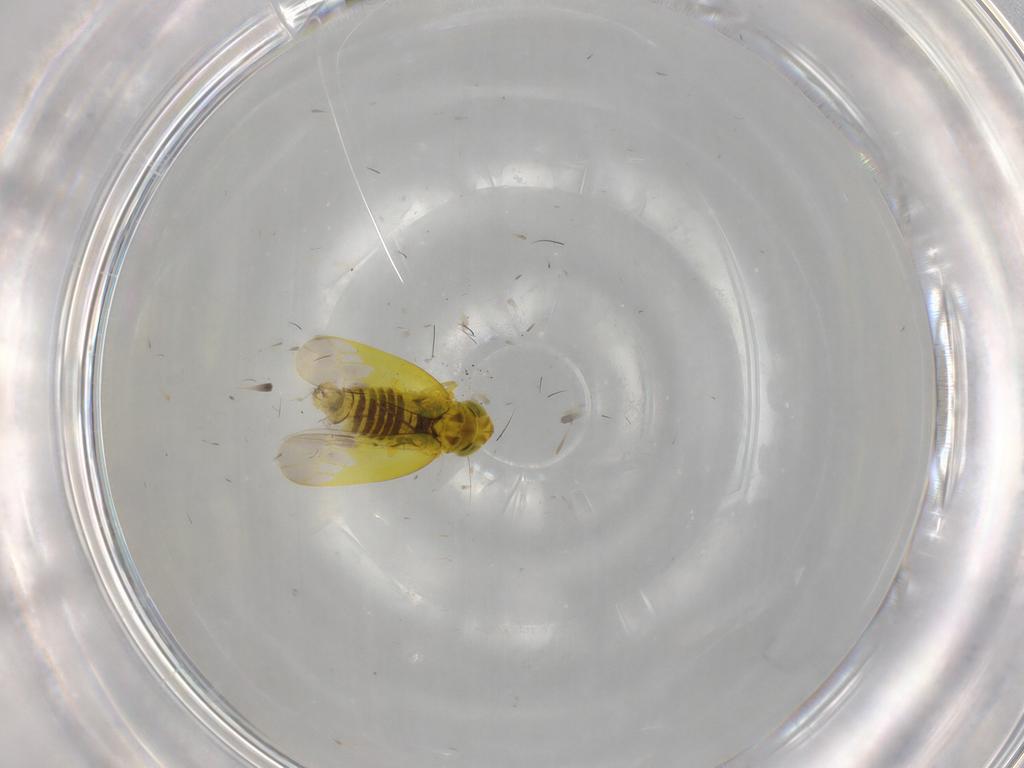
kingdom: Animalia
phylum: Arthropoda
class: Insecta
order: Hemiptera
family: Cicadellidae
